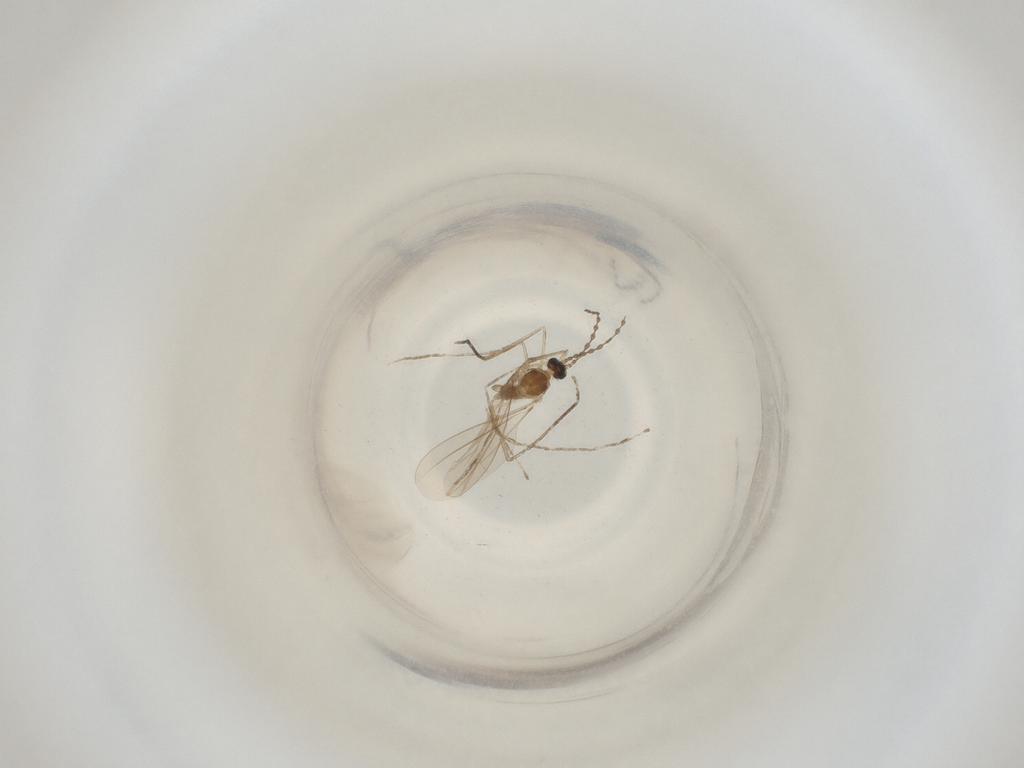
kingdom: Animalia
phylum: Arthropoda
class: Insecta
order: Diptera
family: Cecidomyiidae
